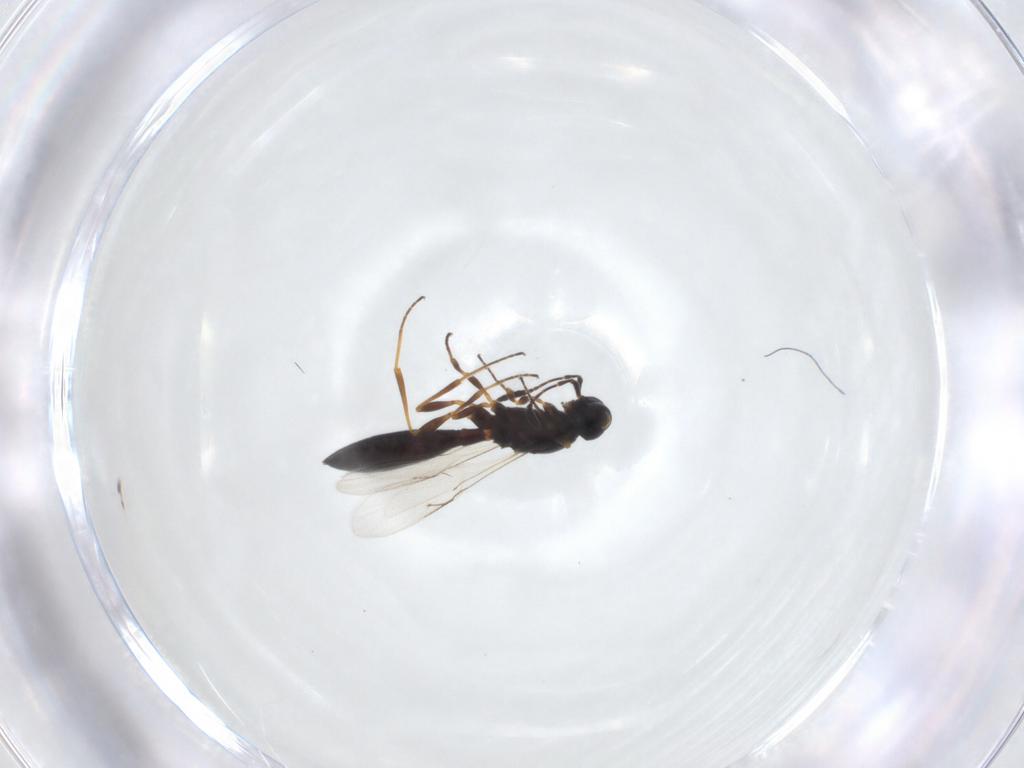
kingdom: Animalia
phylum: Arthropoda
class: Insecta
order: Hymenoptera
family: Scelionidae
